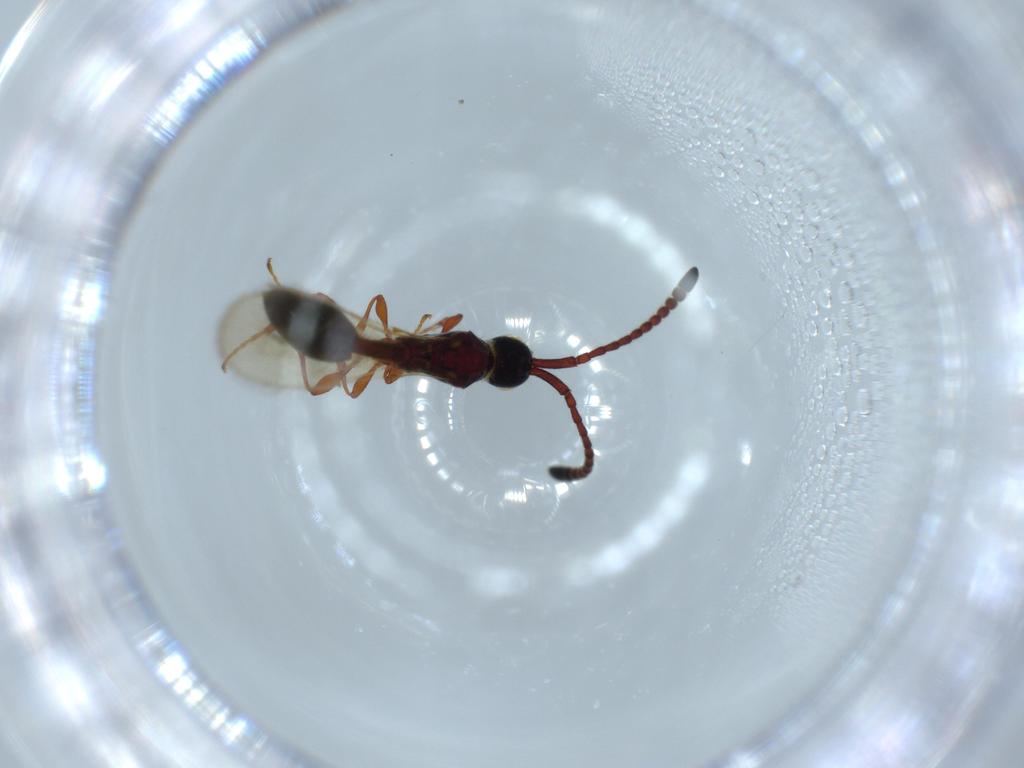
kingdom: Animalia
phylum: Arthropoda
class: Insecta
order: Hymenoptera
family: Diapriidae
